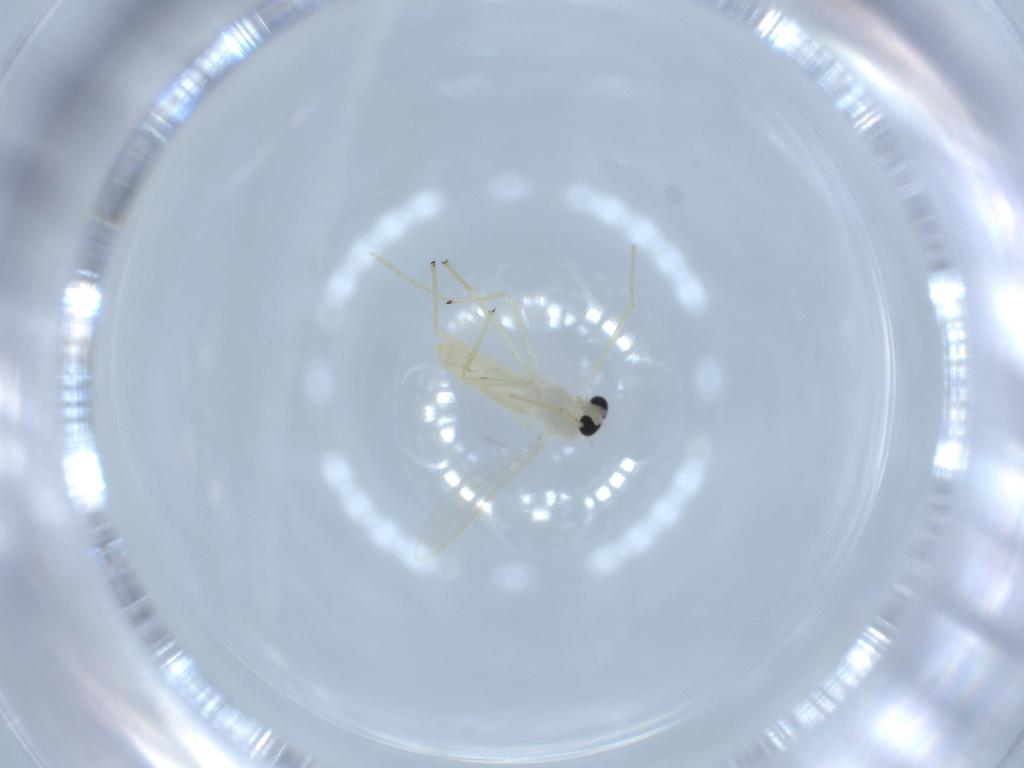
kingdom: Animalia
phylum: Arthropoda
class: Insecta
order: Diptera
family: Chironomidae
